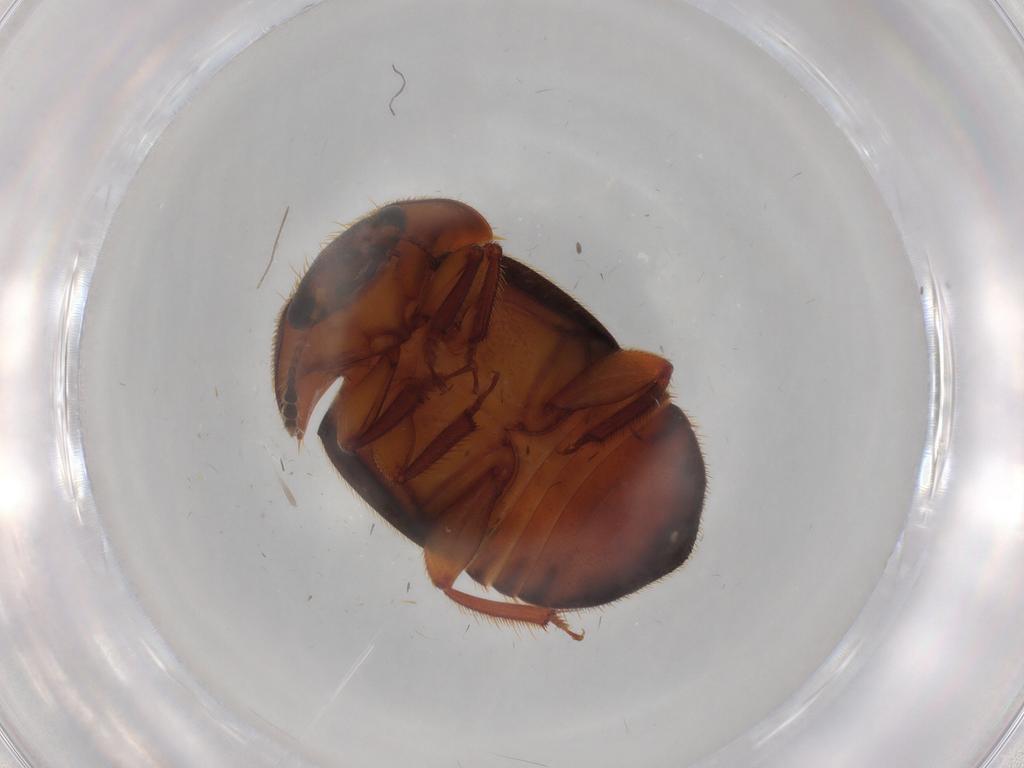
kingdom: Animalia
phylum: Arthropoda
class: Insecta
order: Coleoptera
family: Nitidulidae
